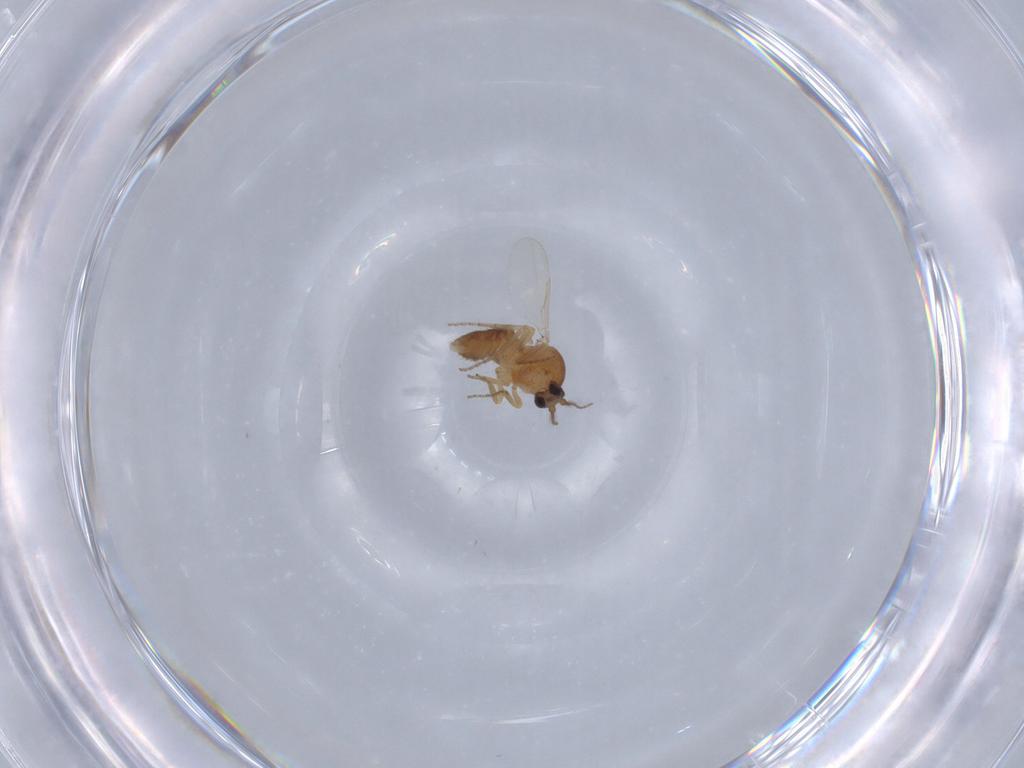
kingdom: Animalia
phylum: Arthropoda
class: Insecta
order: Diptera
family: Ceratopogonidae
